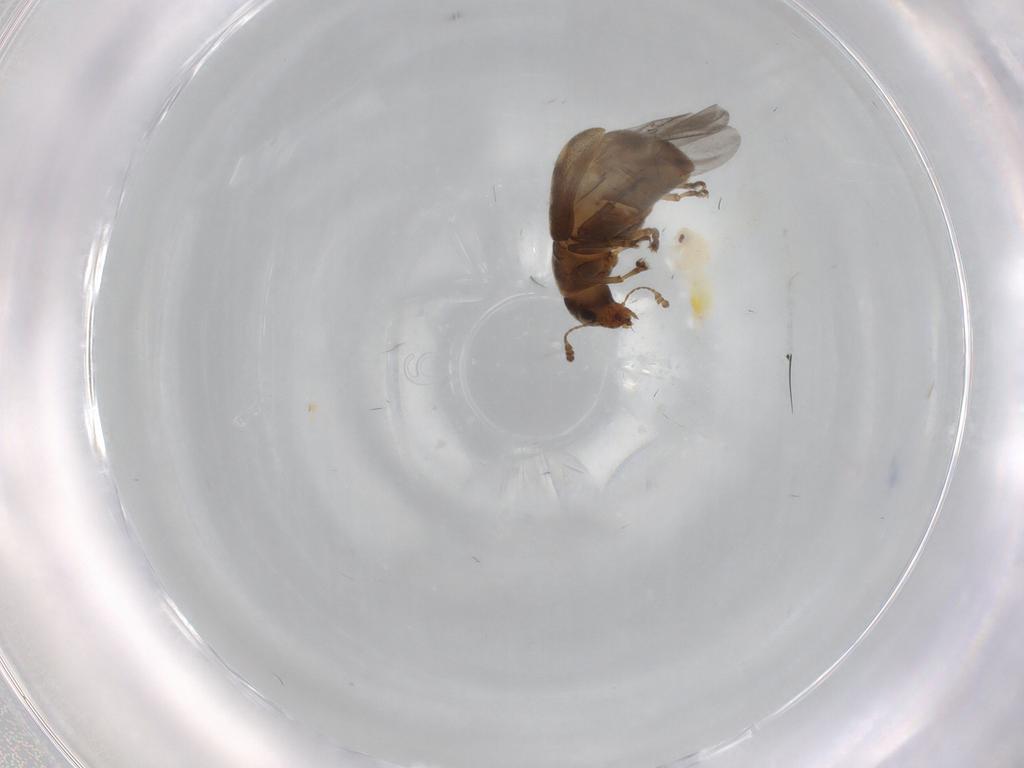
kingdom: Animalia
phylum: Arthropoda
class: Insecta
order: Coleoptera
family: Anthribidae
